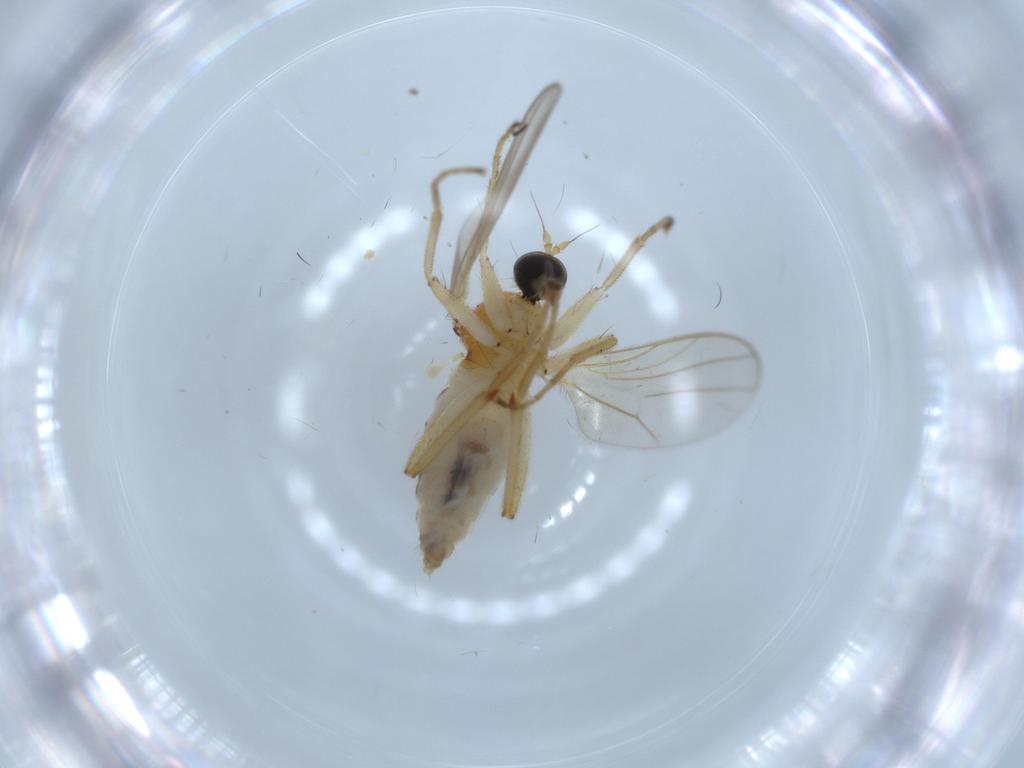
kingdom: Animalia
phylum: Arthropoda
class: Insecta
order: Diptera
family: Hybotidae
